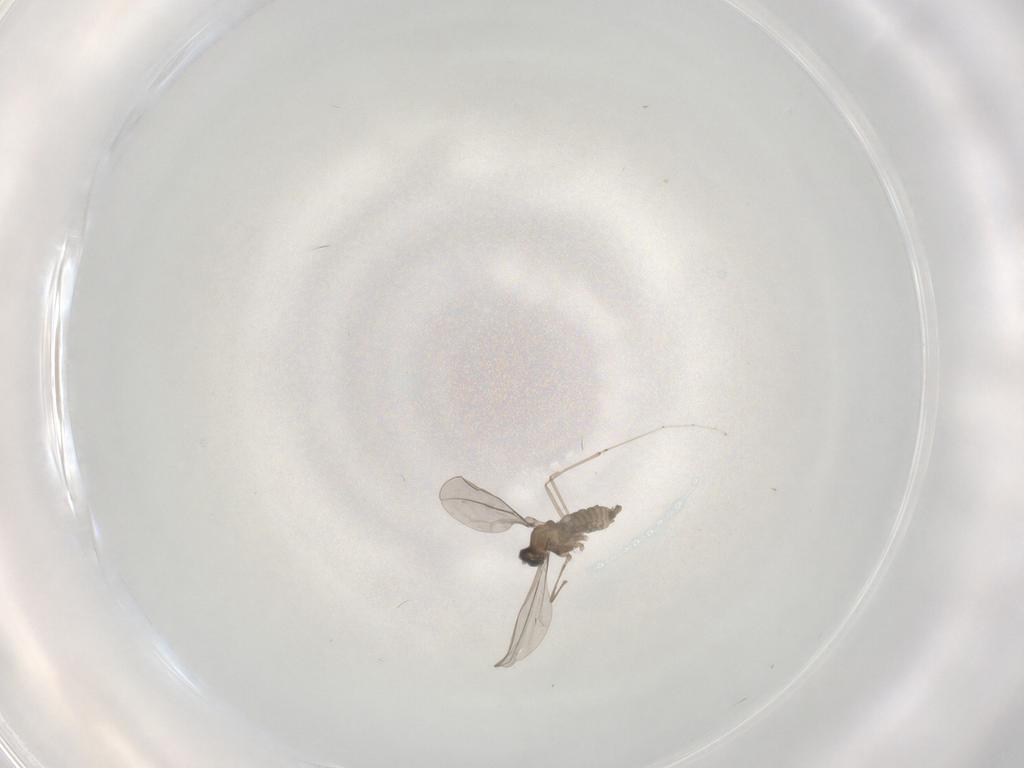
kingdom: Animalia
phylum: Arthropoda
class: Insecta
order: Diptera
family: Cecidomyiidae
